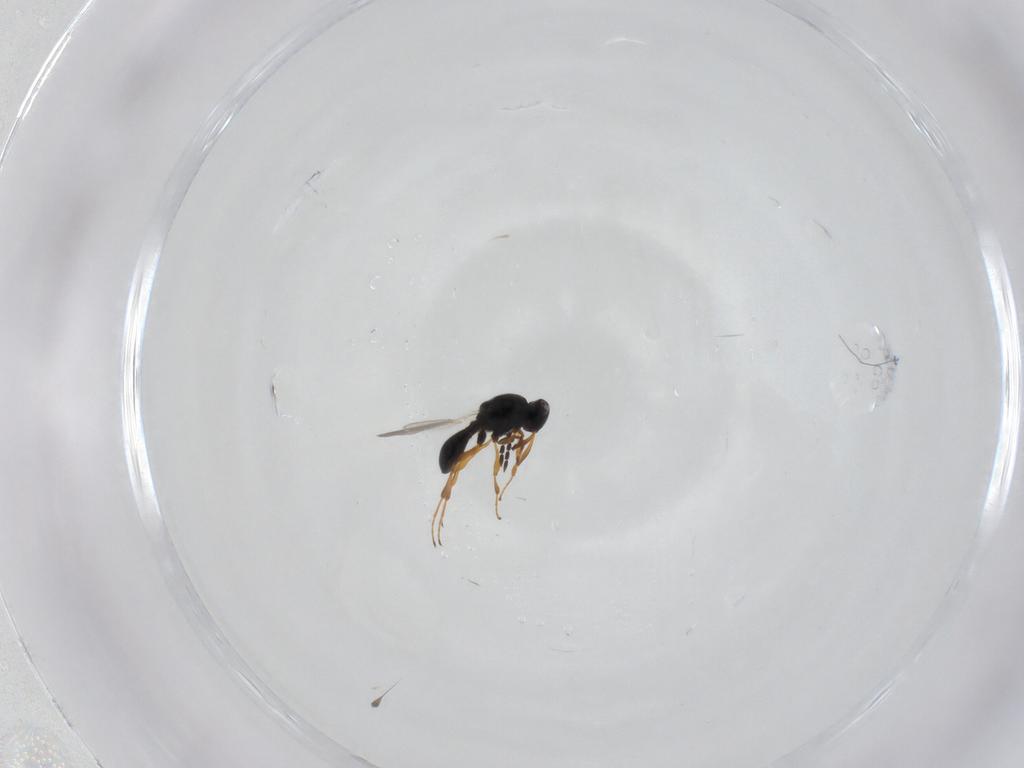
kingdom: Animalia
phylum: Arthropoda
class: Insecta
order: Hymenoptera
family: Platygastridae
